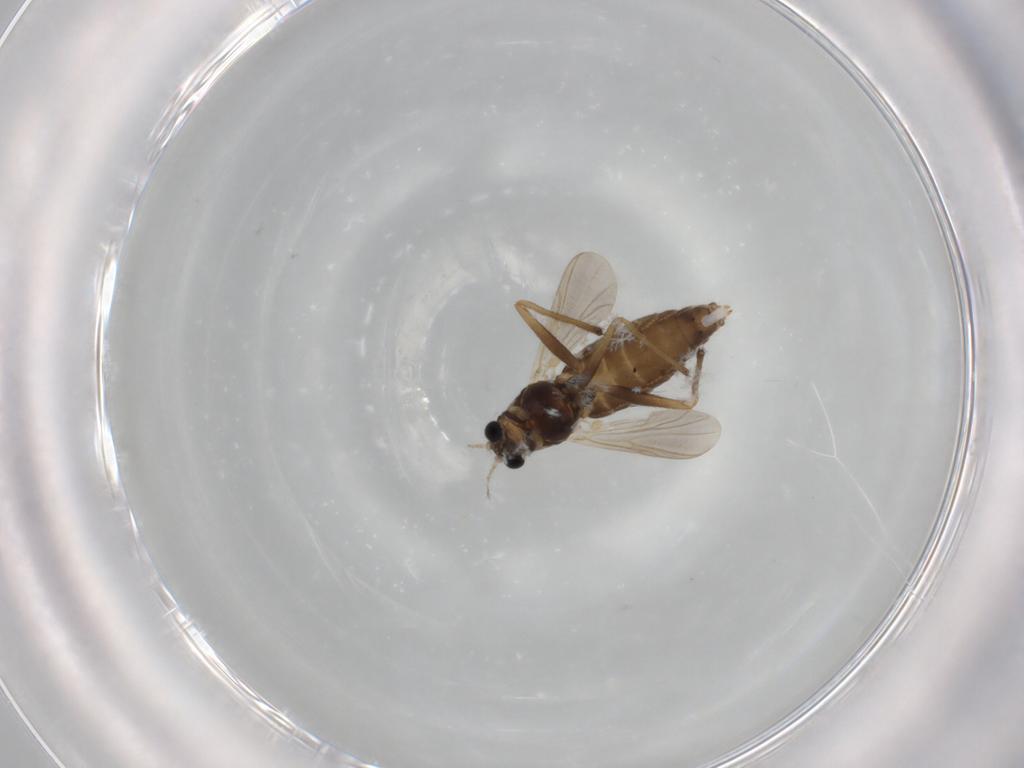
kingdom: Animalia
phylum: Arthropoda
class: Insecta
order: Diptera
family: Chironomidae
